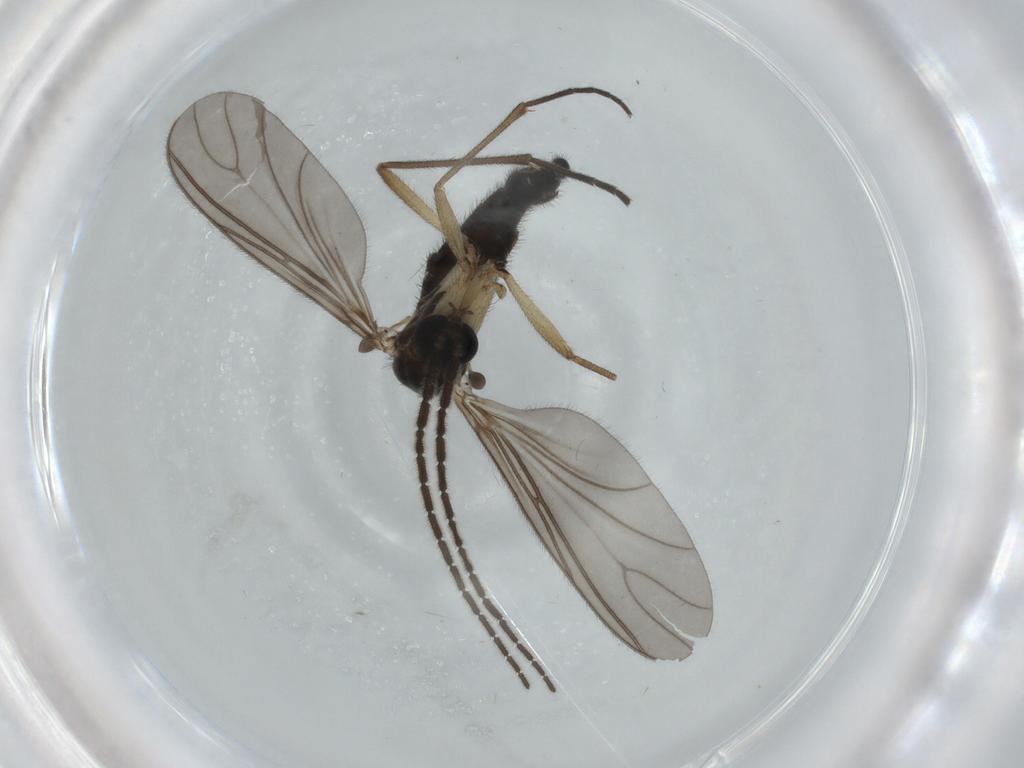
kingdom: Animalia
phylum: Arthropoda
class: Insecta
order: Diptera
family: Sciaridae
